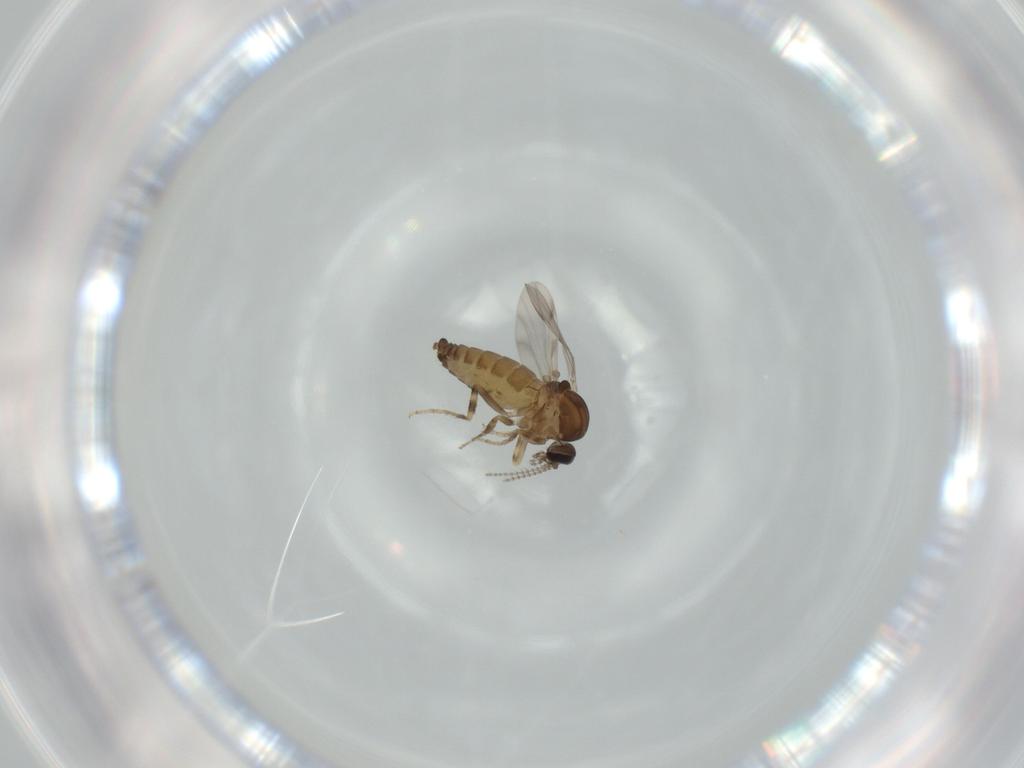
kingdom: Animalia
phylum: Arthropoda
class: Insecta
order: Diptera
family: Ceratopogonidae
